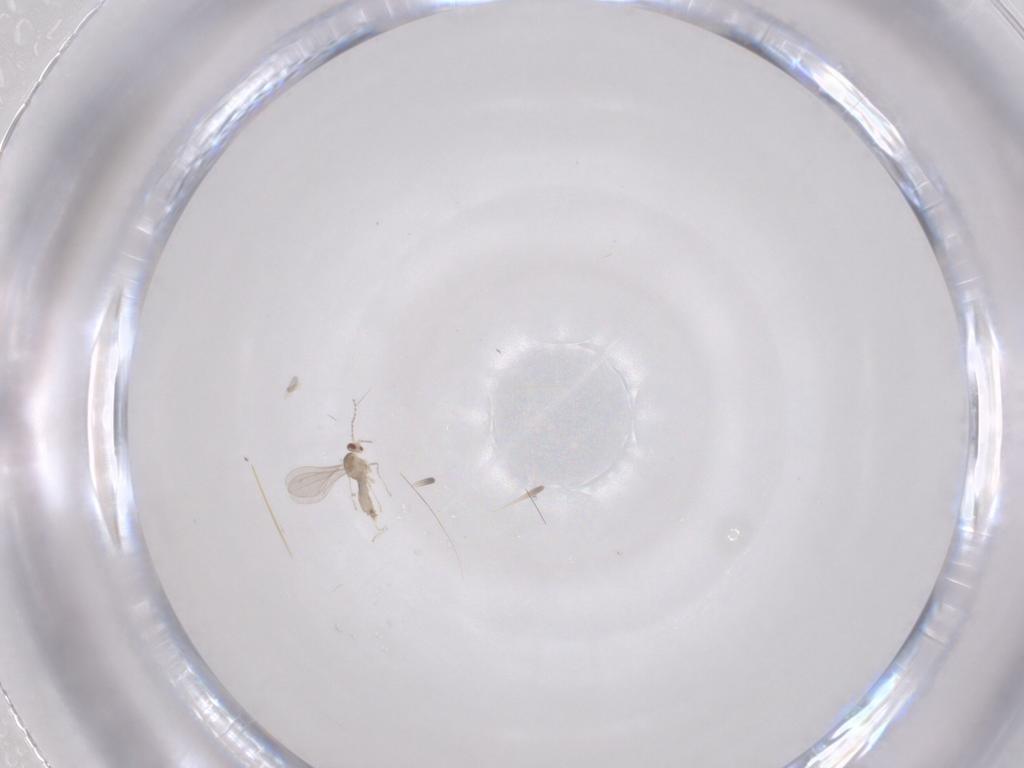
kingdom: Animalia
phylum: Arthropoda
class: Insecta
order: Diptera
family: Cecidomyiidae
